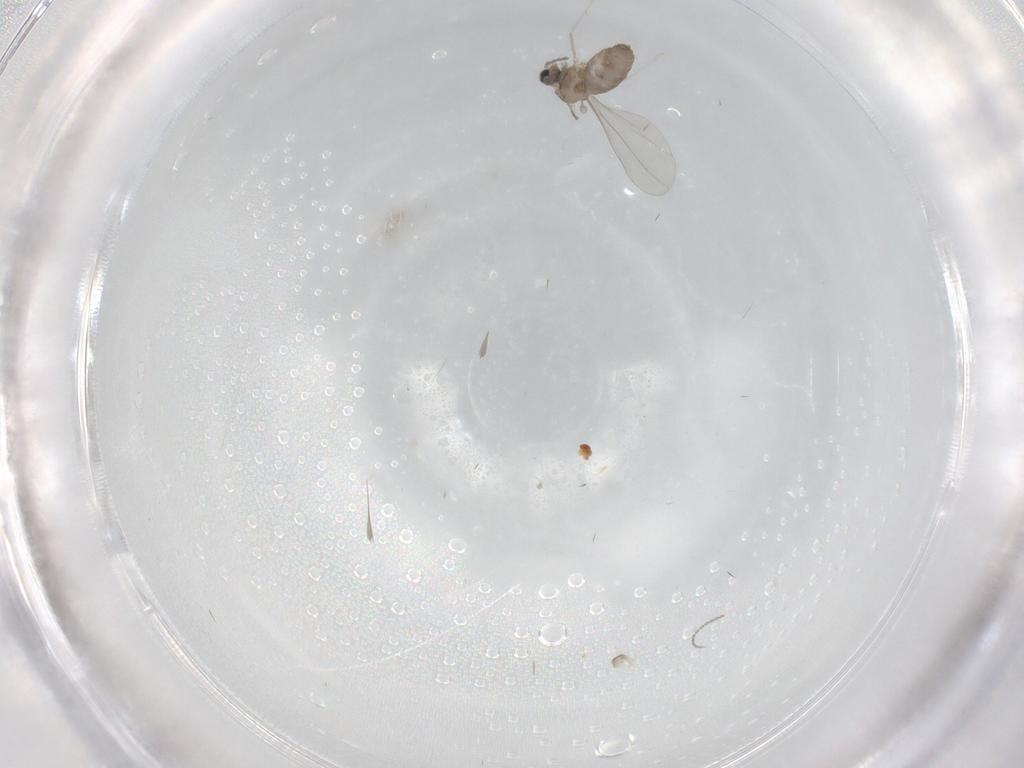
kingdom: Animalia
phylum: Arthropoda
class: Insecta
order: Diptera
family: Cecidomyiidae
